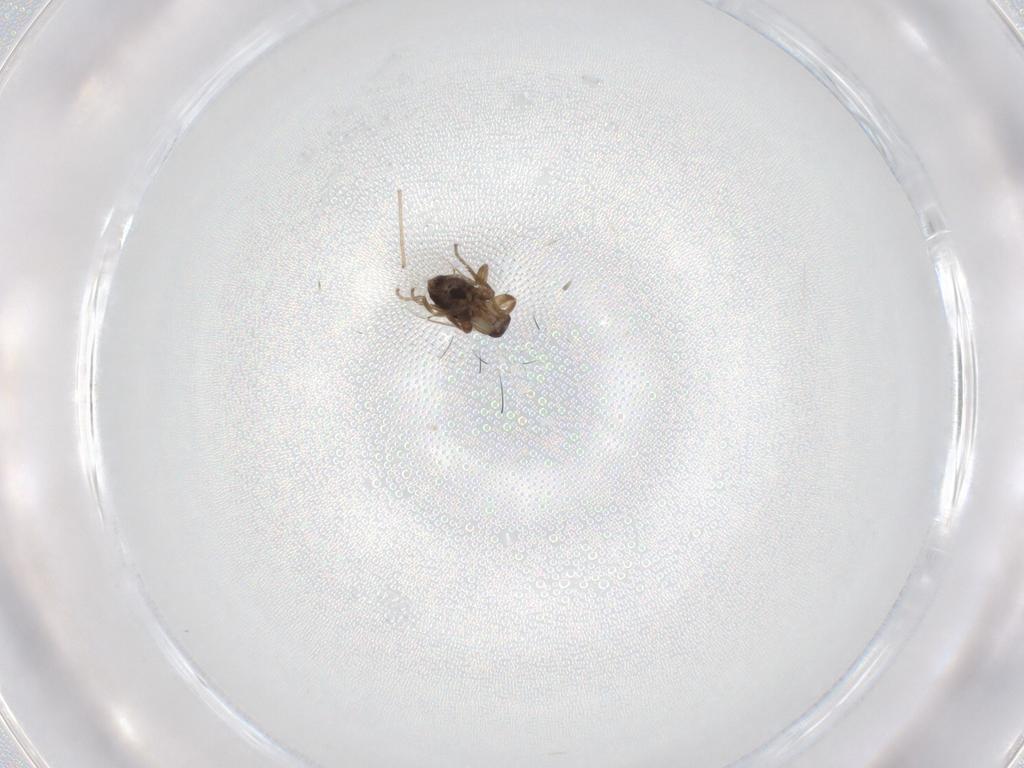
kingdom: Animalia
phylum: Arthropoda
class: Insecta
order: Diptera
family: Phoridae
